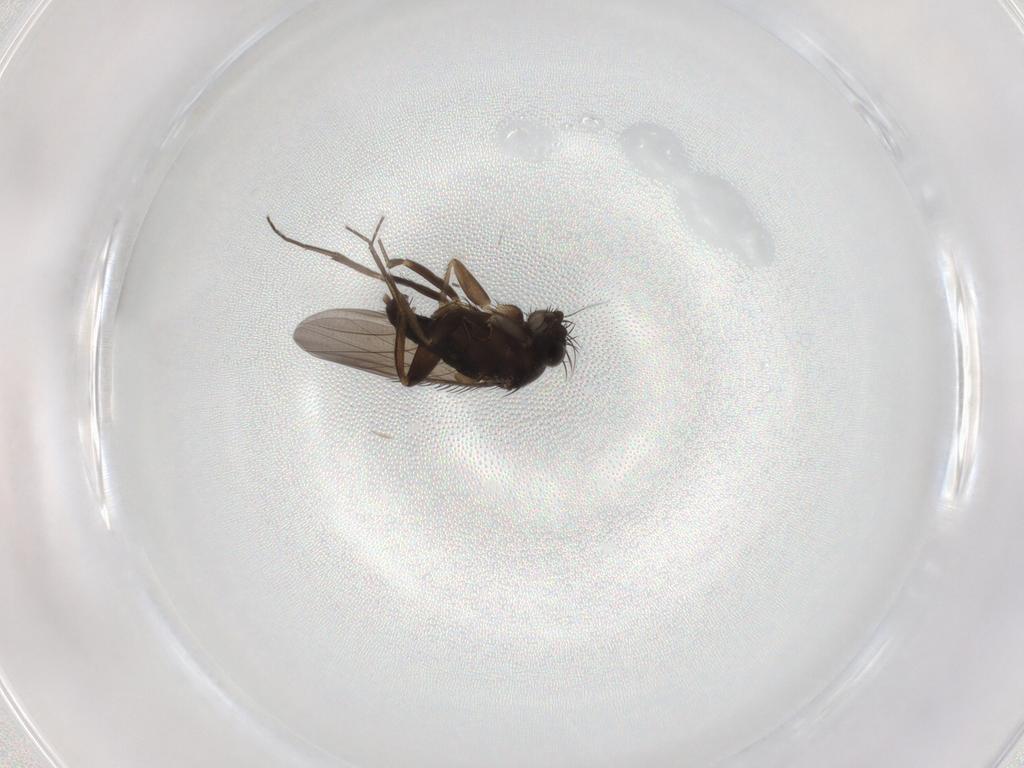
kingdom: Animalia
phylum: Arthropoda
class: Insecta
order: Diptera
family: Phoridae
